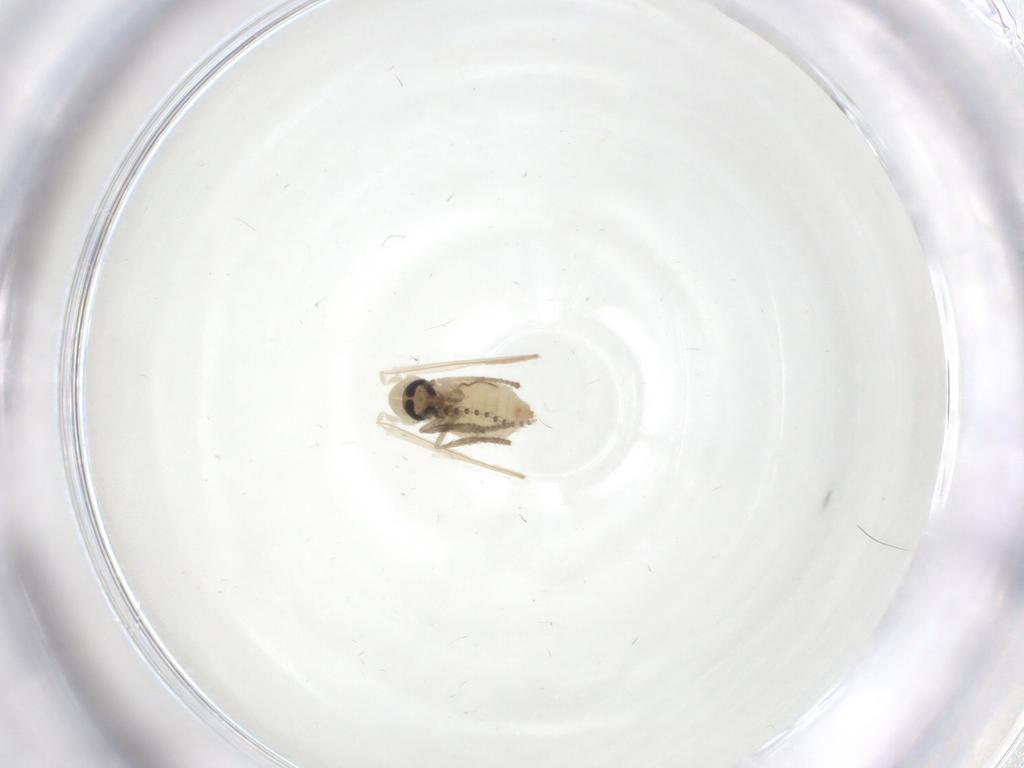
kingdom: Animalia
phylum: Arthropoda
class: Insecta
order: Diptera
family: Psychodidae
